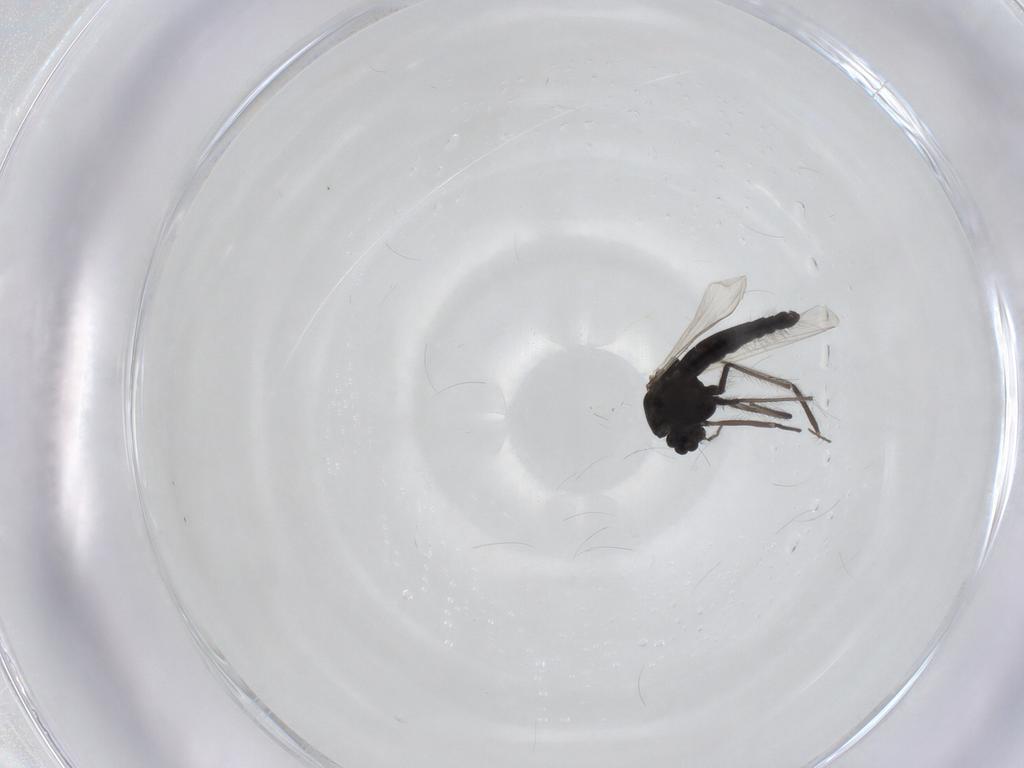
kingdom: Animalia
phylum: Arthropoda
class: Insecta
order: Diptera
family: Chironomidae
